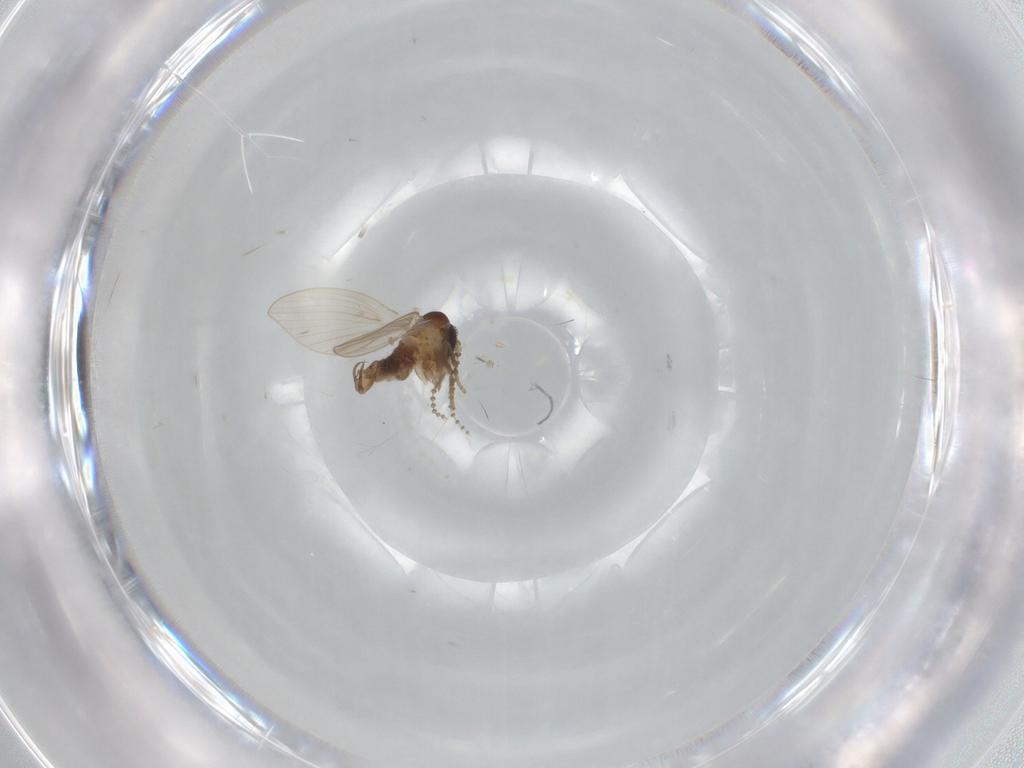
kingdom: Animalia
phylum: Arthropoda
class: Insecta
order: Diptera
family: Psychodidae
